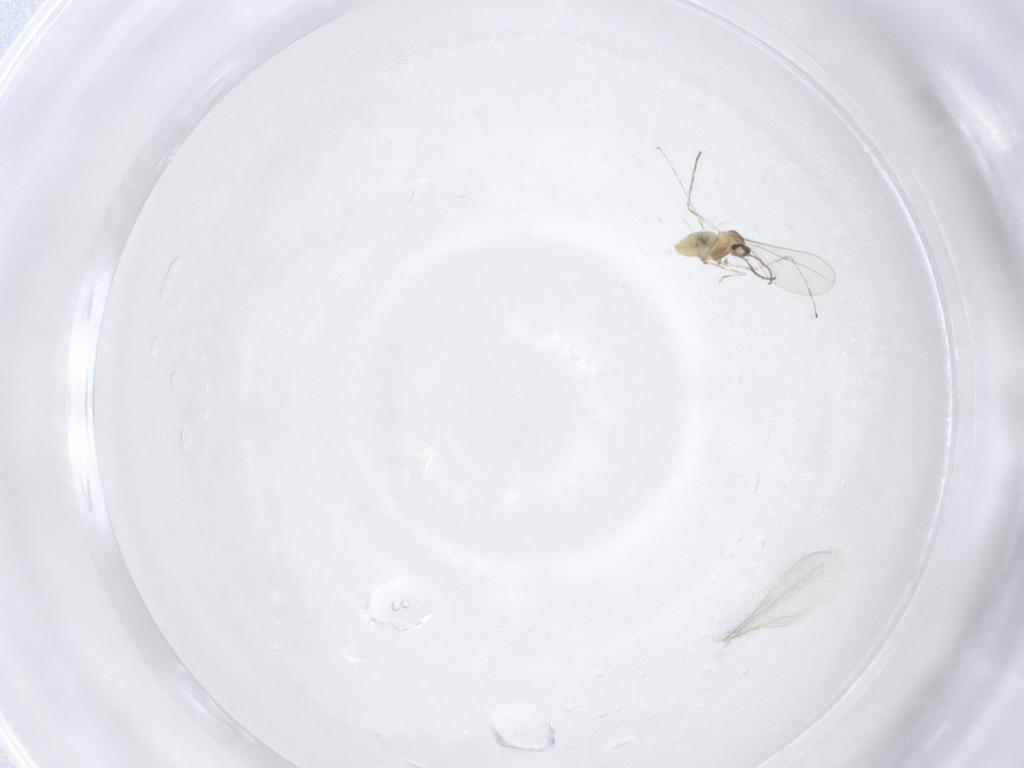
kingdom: Animalia
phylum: Arthropoda
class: Insecta
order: Diptera
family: Cecidomyiidae
